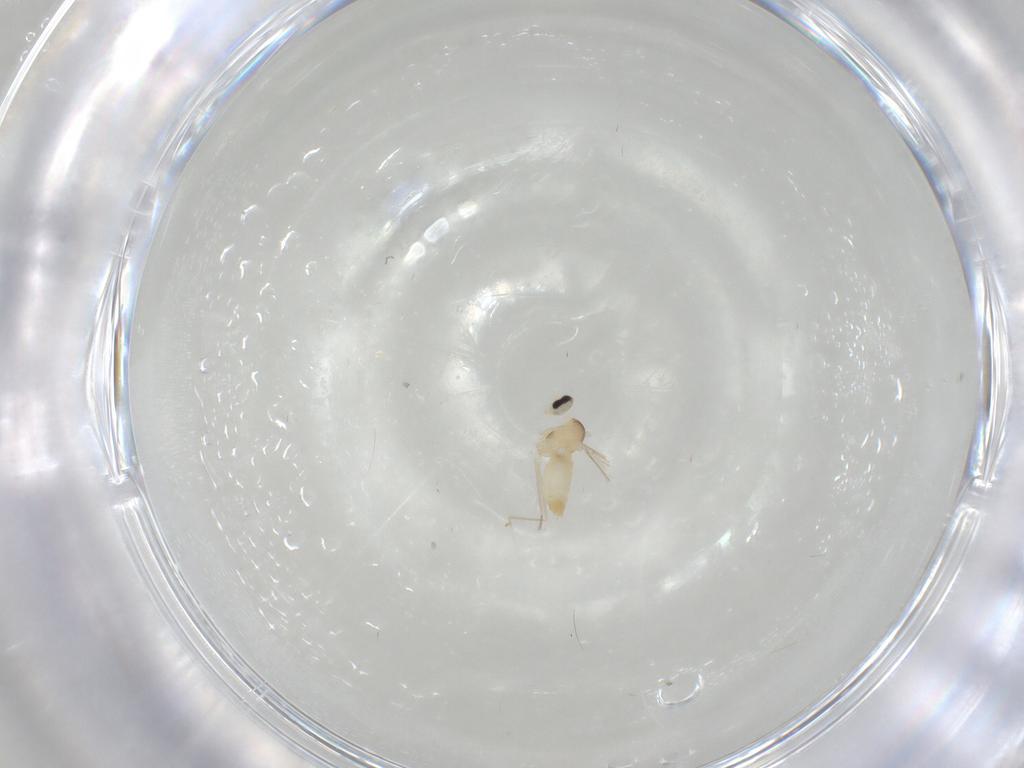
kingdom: Animalia
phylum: Arthropoda
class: Insecta
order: Diptera
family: Cecidomyiidae
